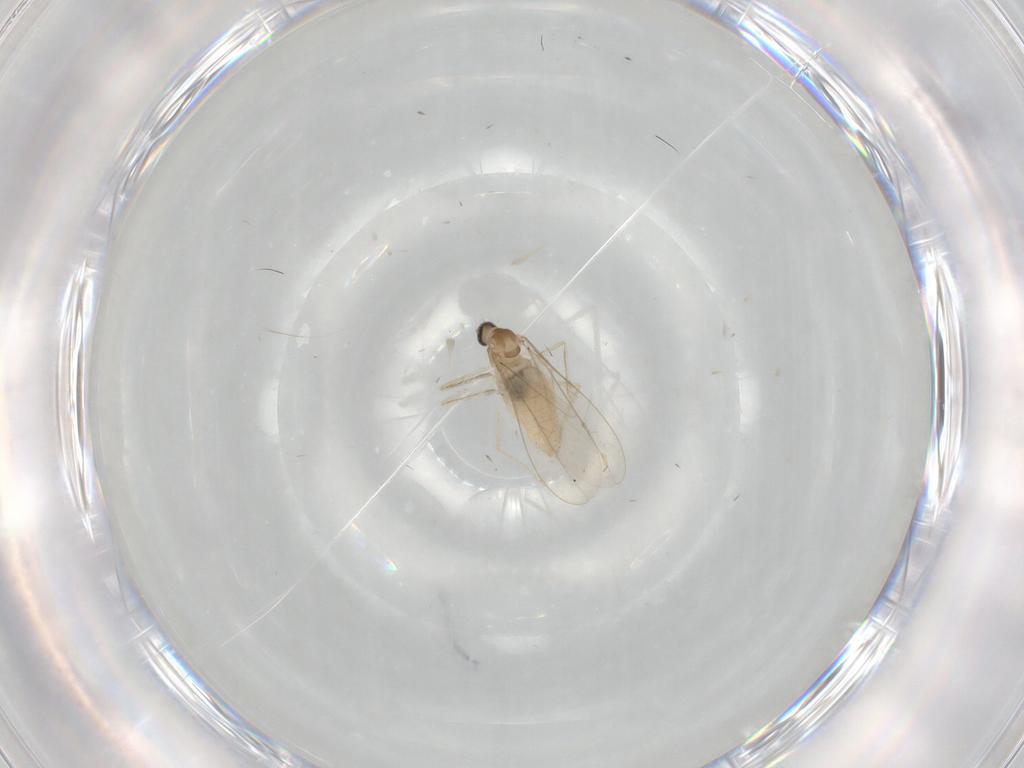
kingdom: Animalia
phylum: Arthropoda
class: Insecta
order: Diptera
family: Cecidomyiidae
